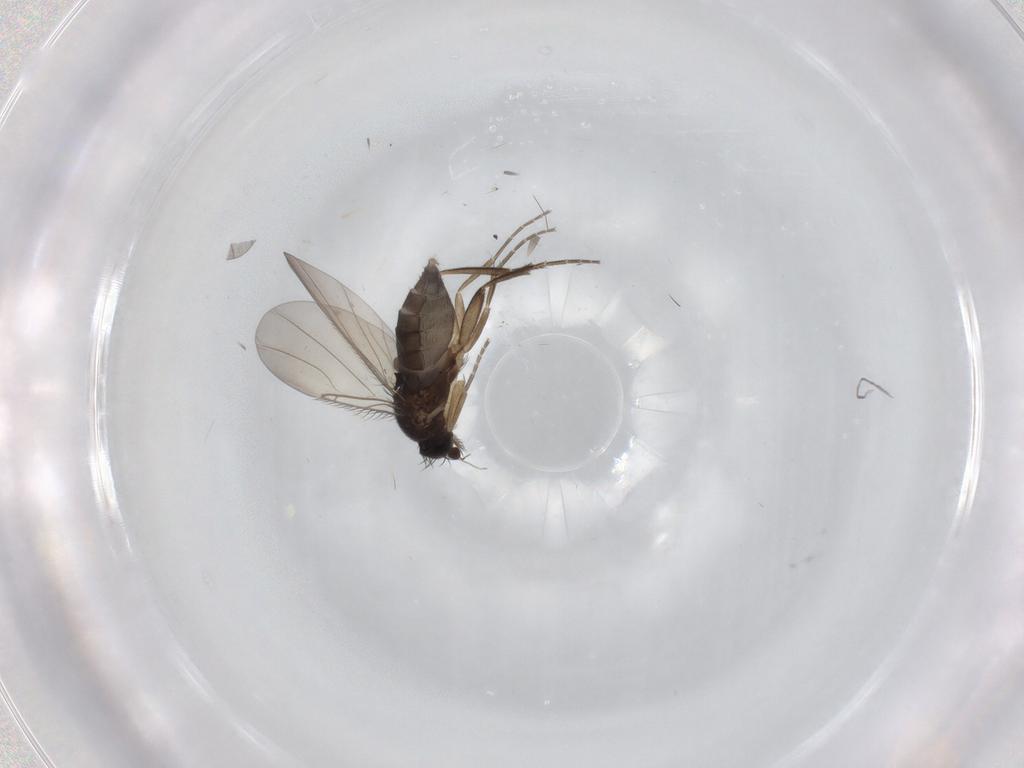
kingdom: Animalia
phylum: Arthropoda
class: Insecta
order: Diptera
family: Phoridae
